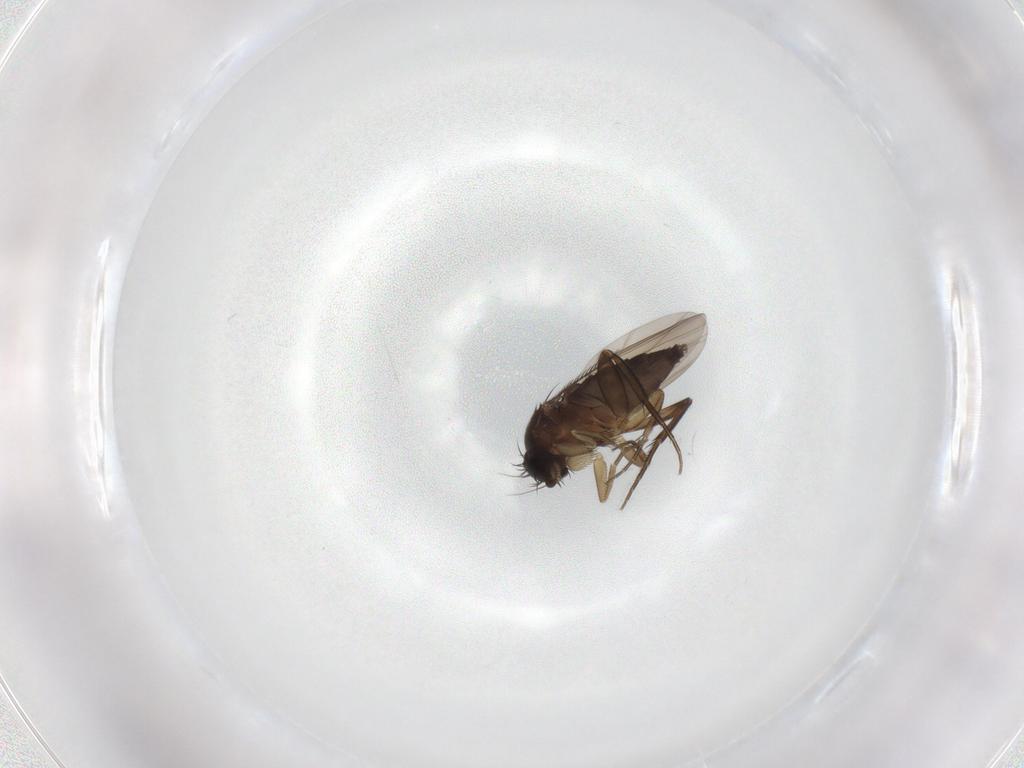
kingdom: Animalia
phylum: Arthropoda
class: Insecta
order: Diptera
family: Phoridae
